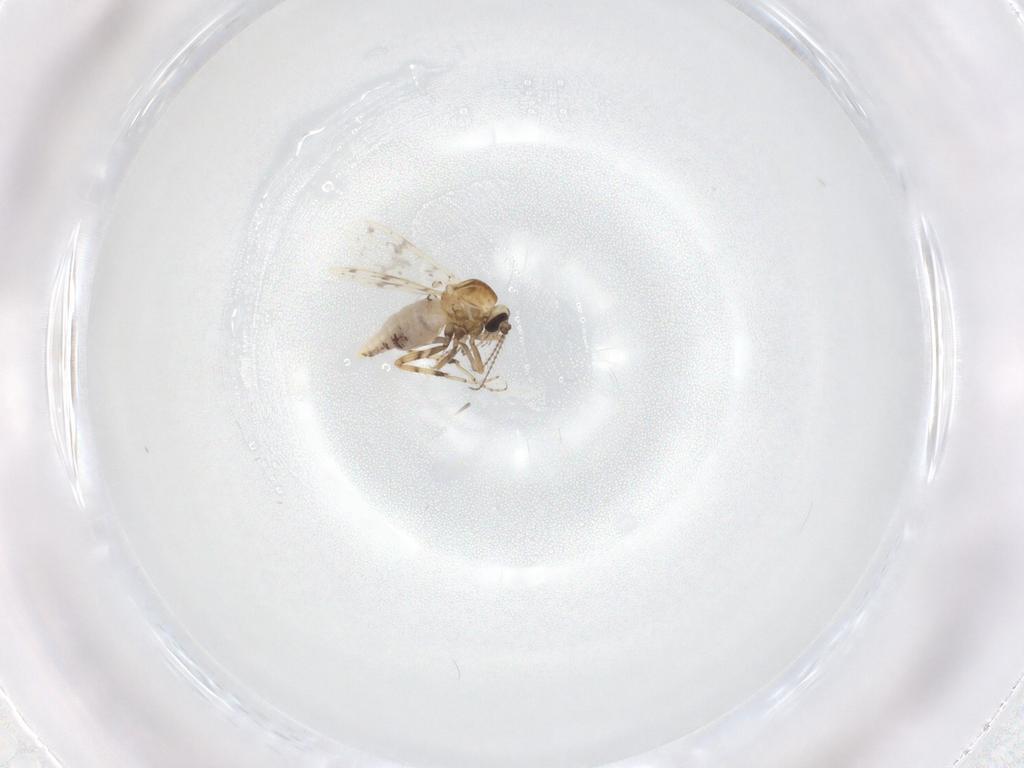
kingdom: Animalia
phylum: Arthropoda
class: Insecta
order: Diptera
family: Ceratopogonidae
